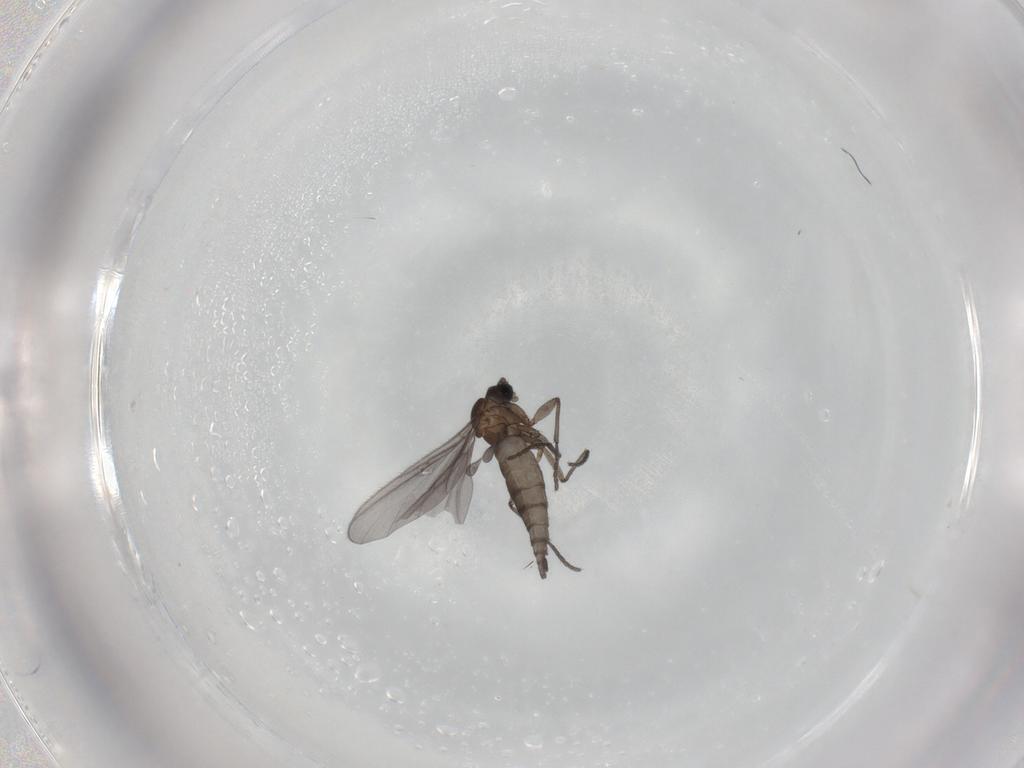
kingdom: Animalia
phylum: Arthropoda
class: Insecta
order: Diptera
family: Sciaridae
